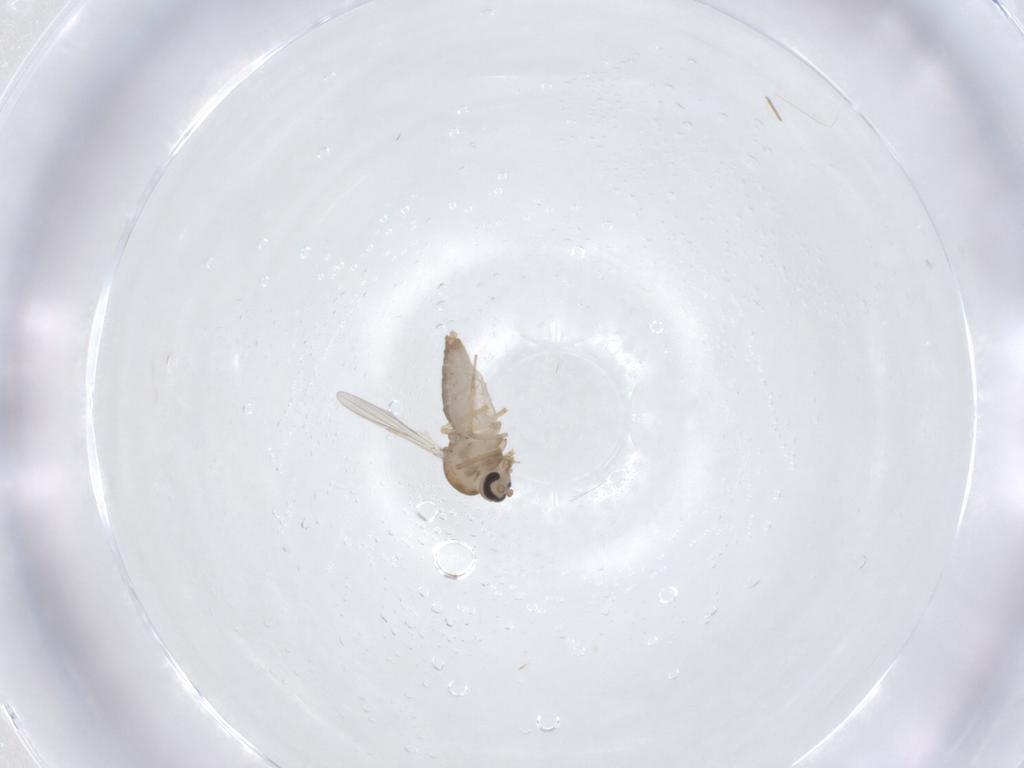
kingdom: Animalia
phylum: Arthropoda
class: Insecta
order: Diptera
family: Ceratopogonidae
